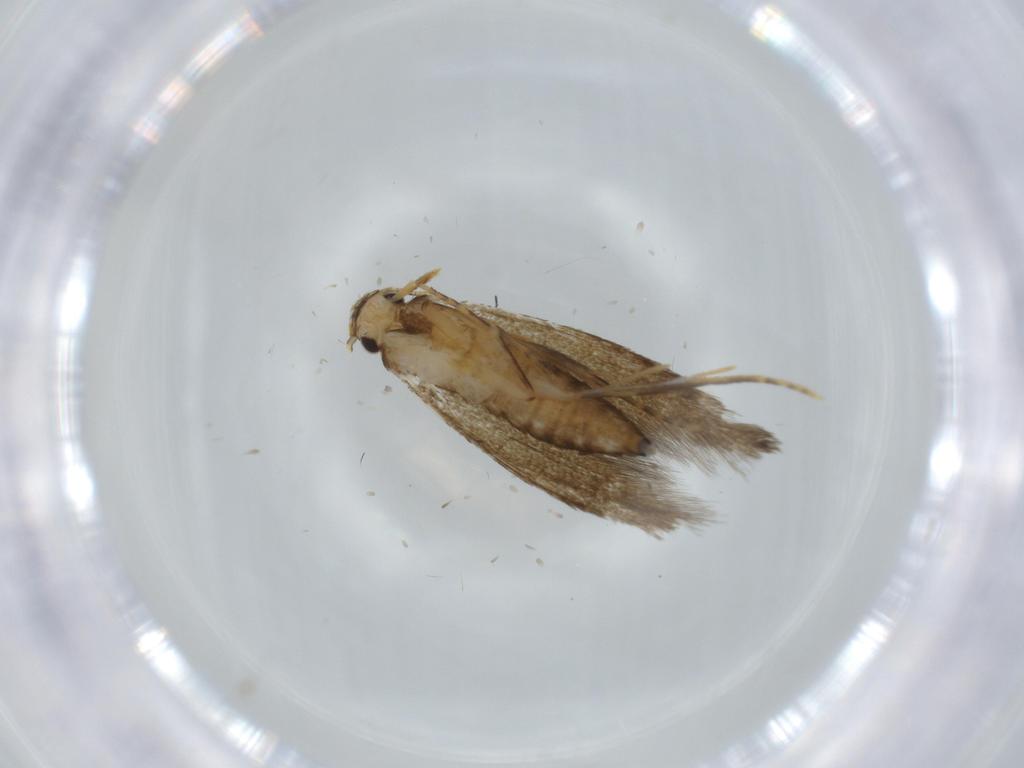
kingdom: Animalia
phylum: Arthropoda
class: Insecta
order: Lepidoptera
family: Tineidae
